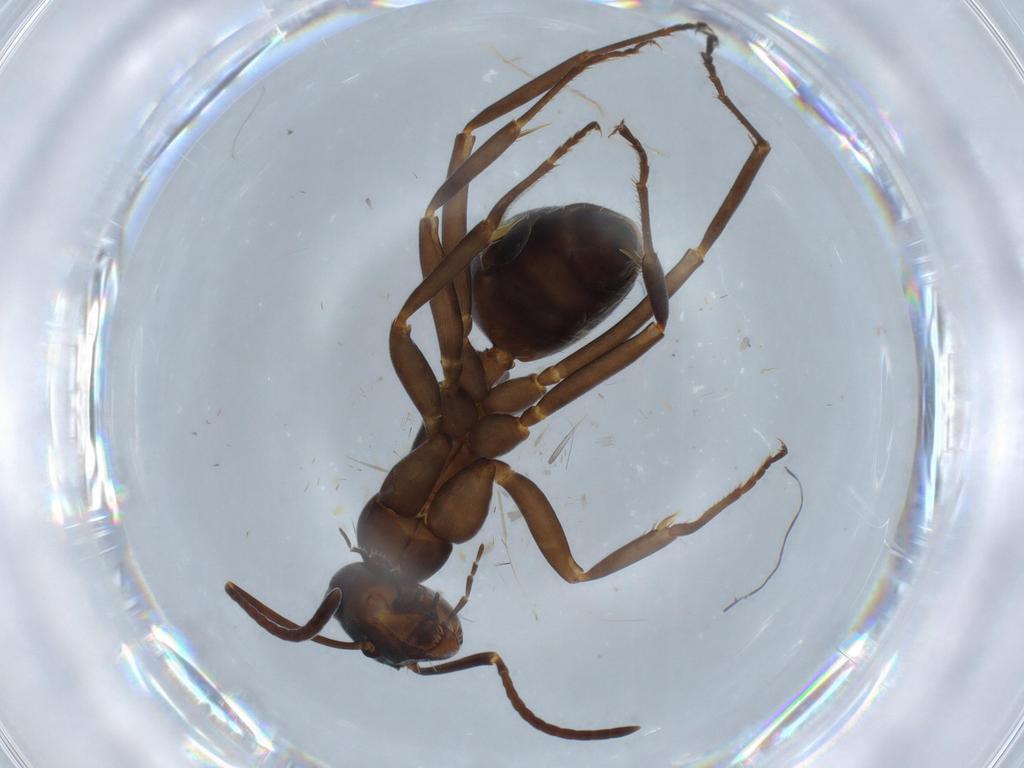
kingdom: Animalia
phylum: Arthropoda
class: Insecta
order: Hymenoptera
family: Formicidae
